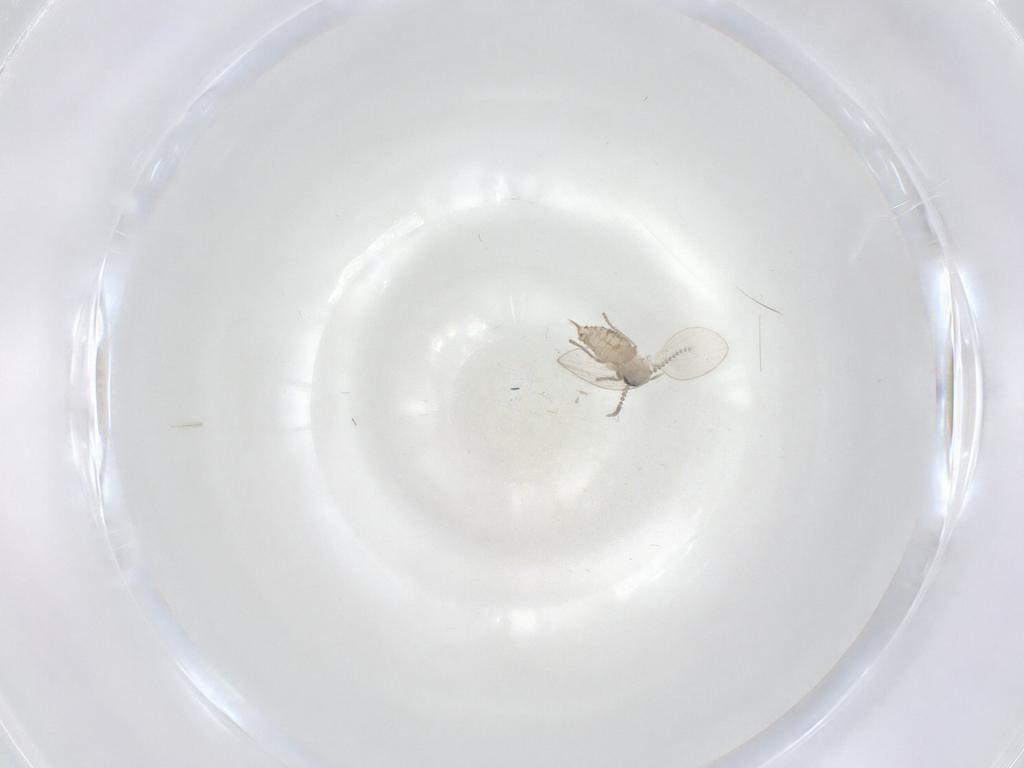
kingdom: Animalia
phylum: Arthropoda
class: Insecta
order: Diptera
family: Psychodidae
